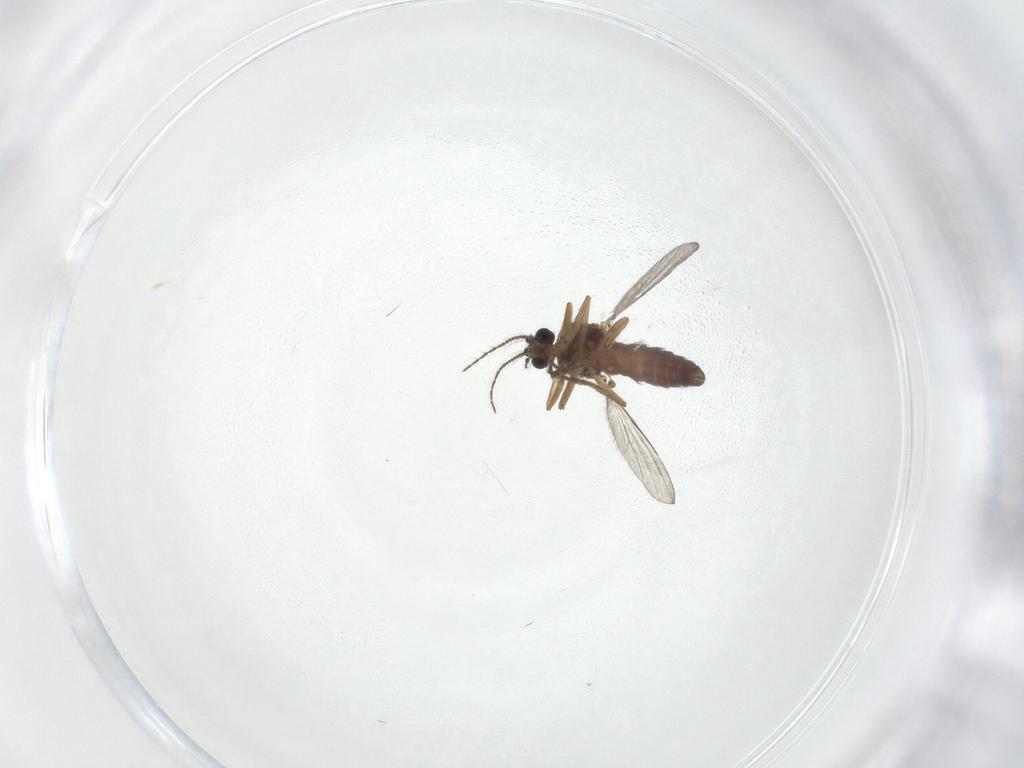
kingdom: Animalia
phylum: Arthropoda
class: Insecta
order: Diptera
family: Ceratopogonidae
